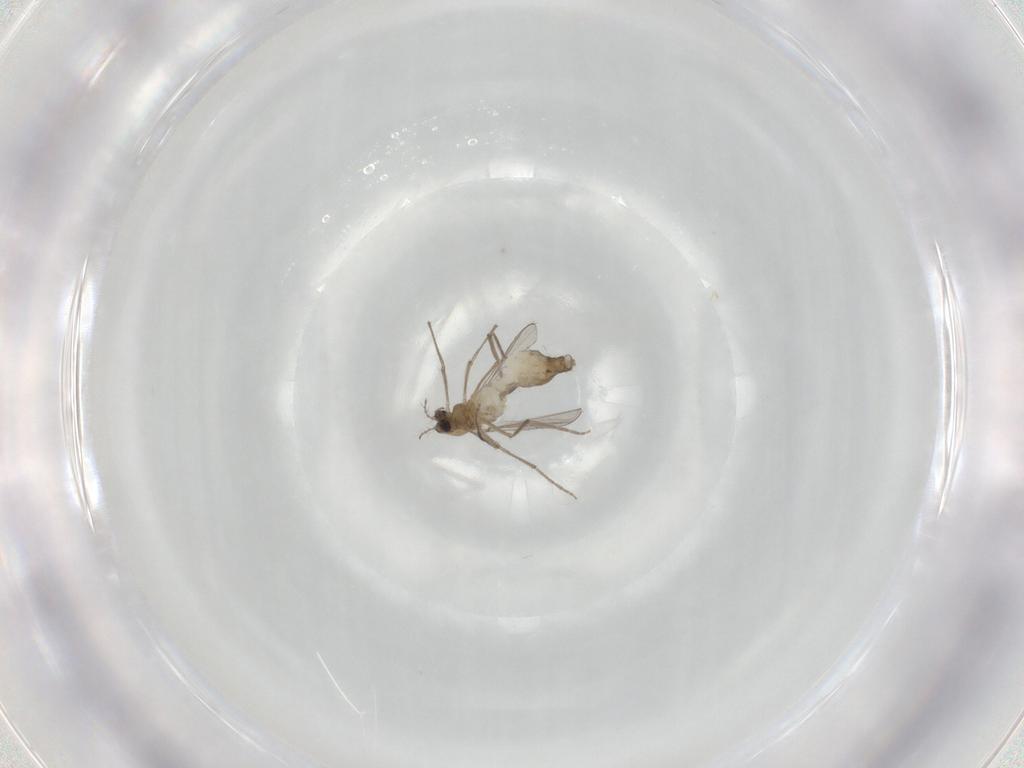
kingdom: Animalia
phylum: Arthropoda
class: Insecta
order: Diptera
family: Chironomidae
